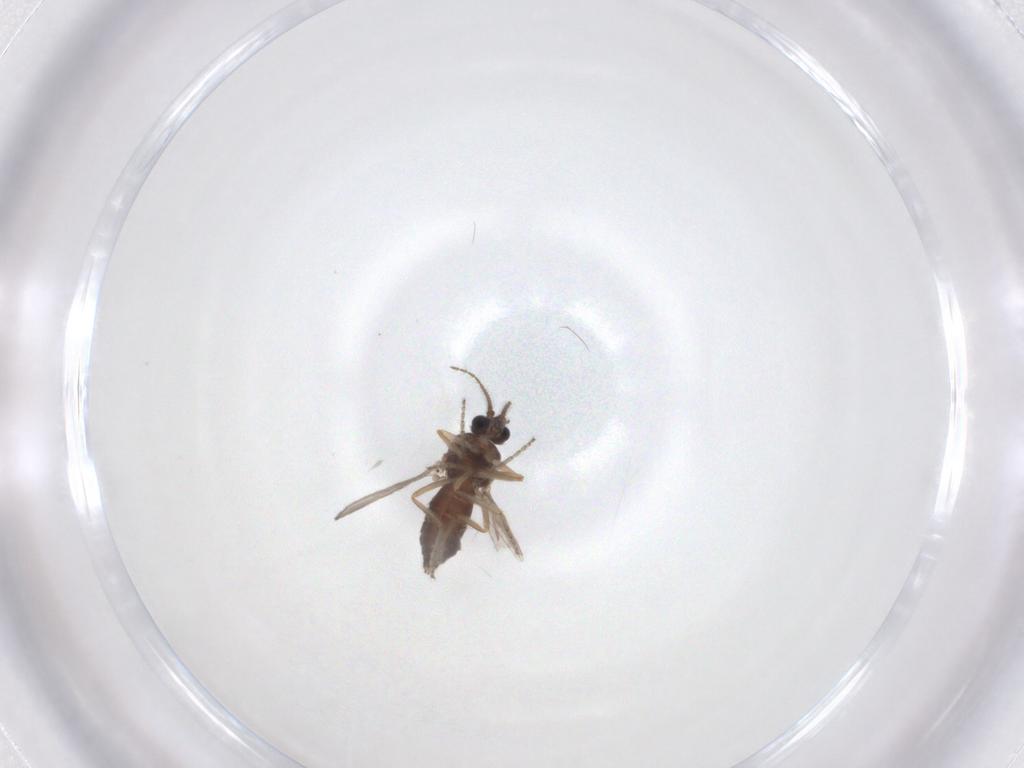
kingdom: Animalia
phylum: Arthropoda
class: Insecta
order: Diptera
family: Ceratopogonidae
